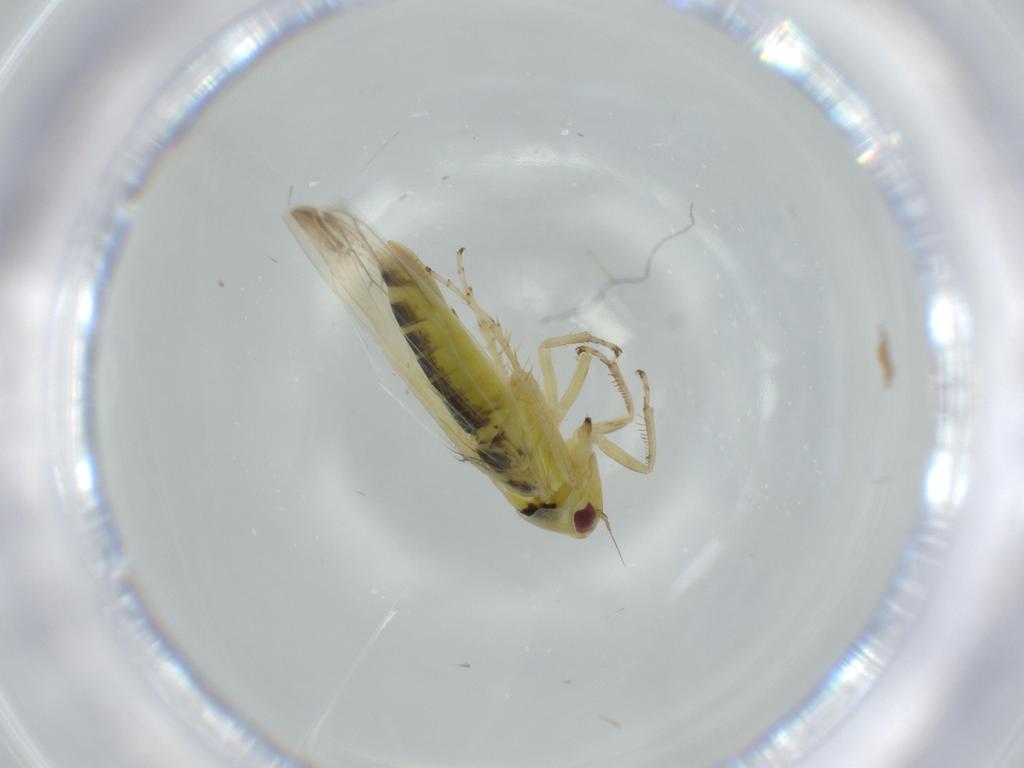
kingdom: Animalia
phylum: Arthropoda
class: Insecta
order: Hemiptera
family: Cicadellidae
